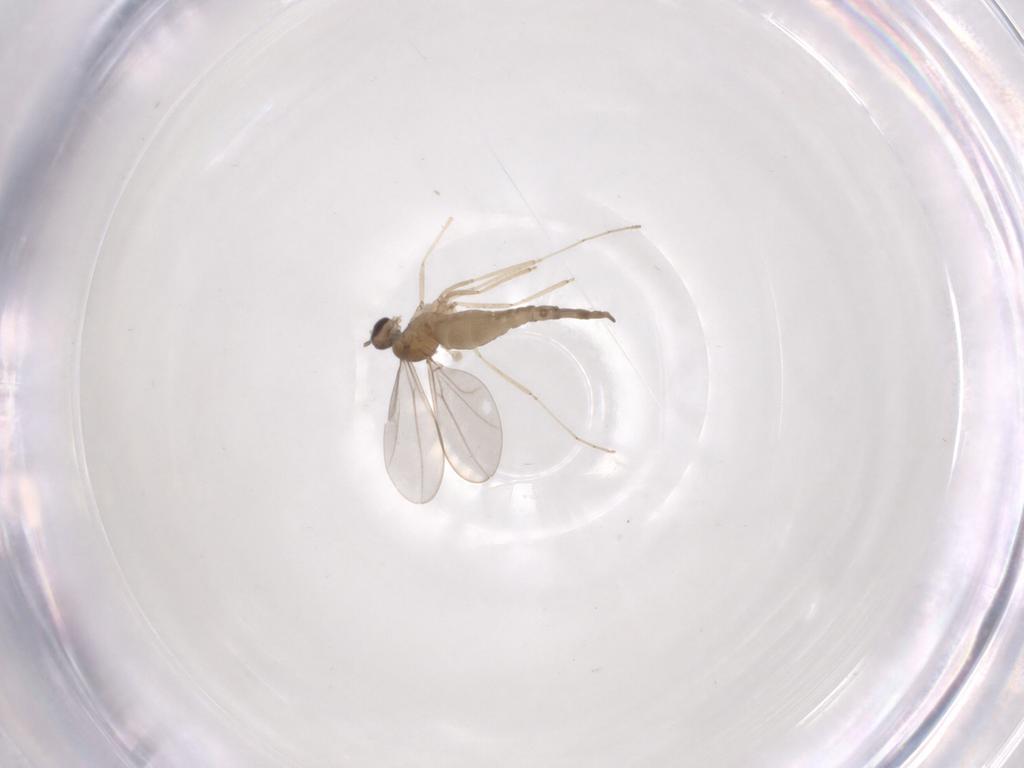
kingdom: Animalia
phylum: Arthropoda
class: Insecta
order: Diptera
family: Cecidomyiidae
